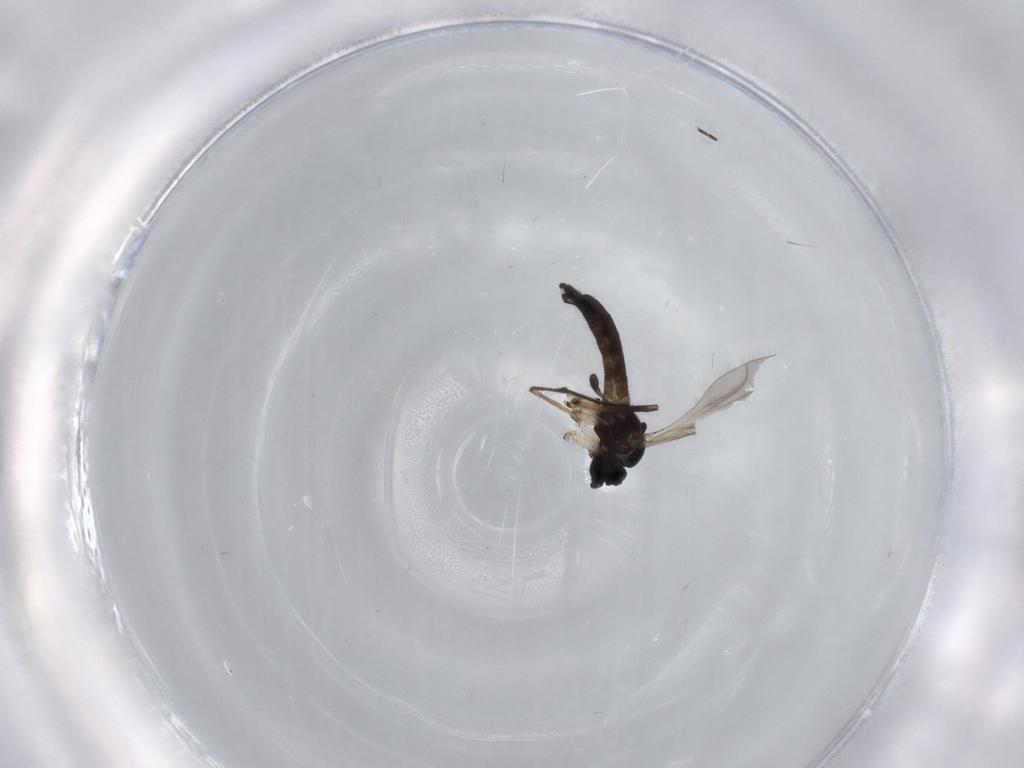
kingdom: Animalia
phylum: Arthropoda
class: Insecta
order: Diptera
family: Sciaridae
